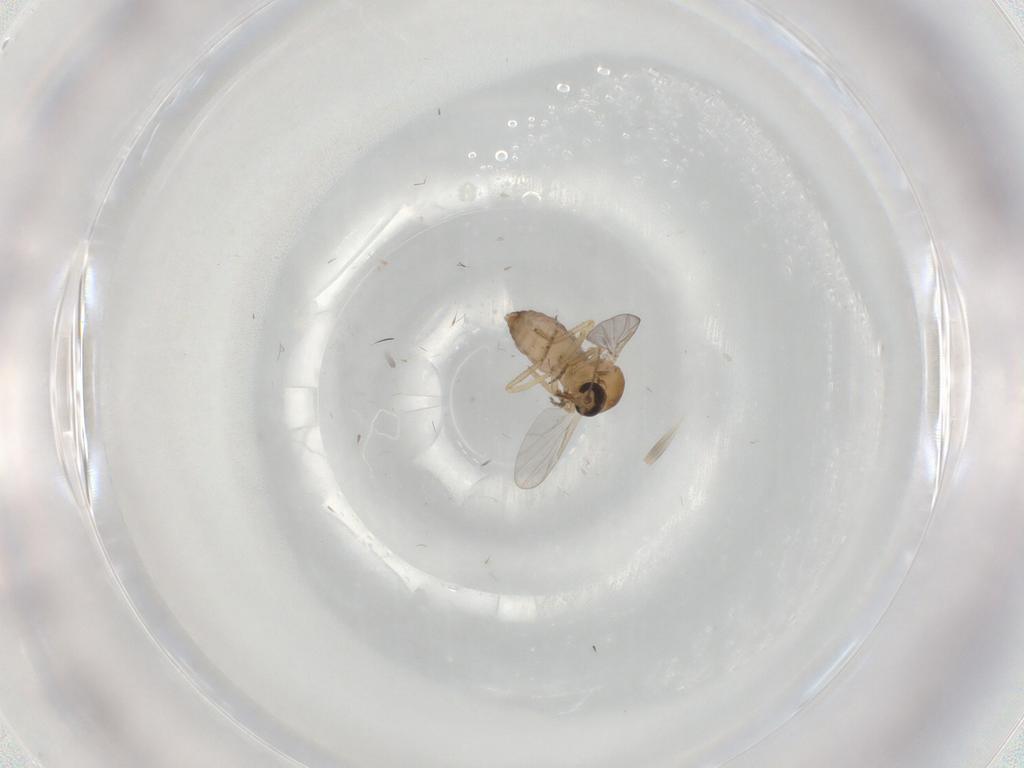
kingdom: Animalia
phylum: Arthropoda
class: Insecta
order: Diptera
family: Ceratopogonidae
